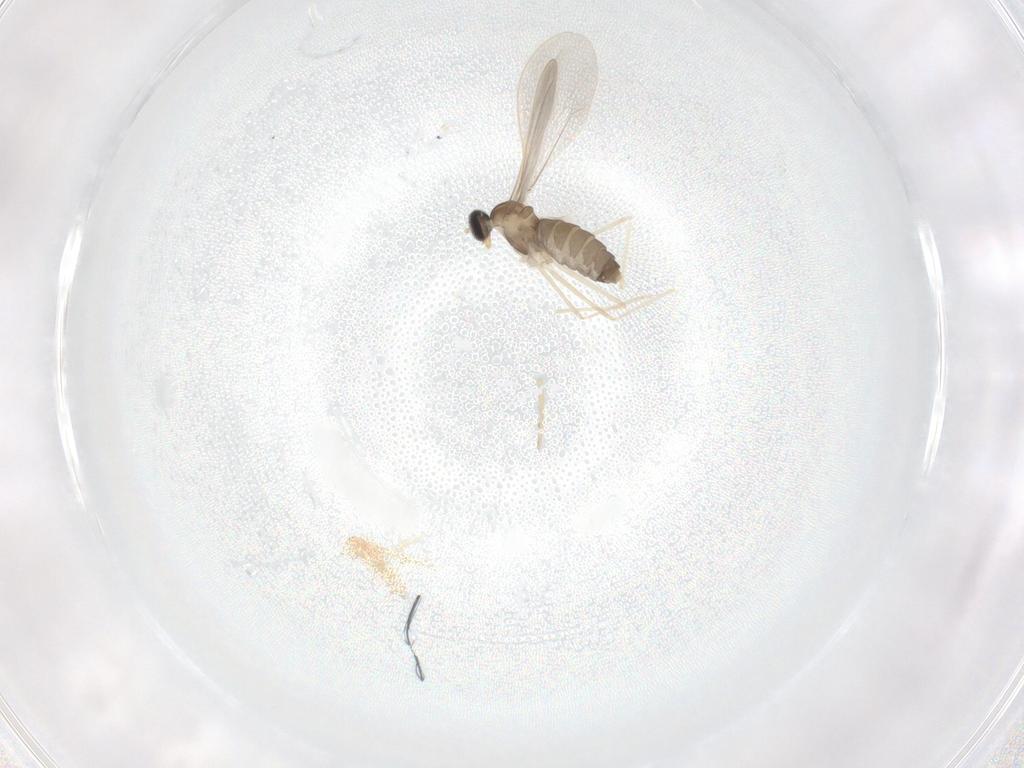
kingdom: Animalia
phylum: Arthropoda
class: Insecta
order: Diptera
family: Cecidomyiidae
